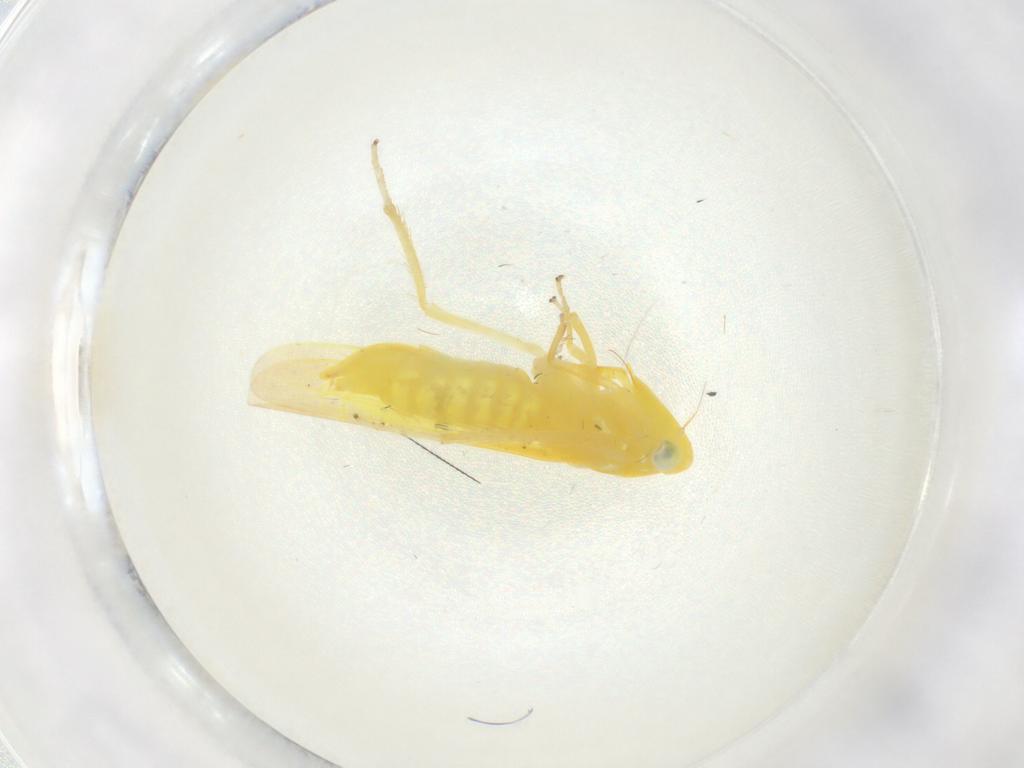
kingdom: Animalia
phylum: Arthropoda
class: Insecta
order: Hemiptera
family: Cicadellidae
